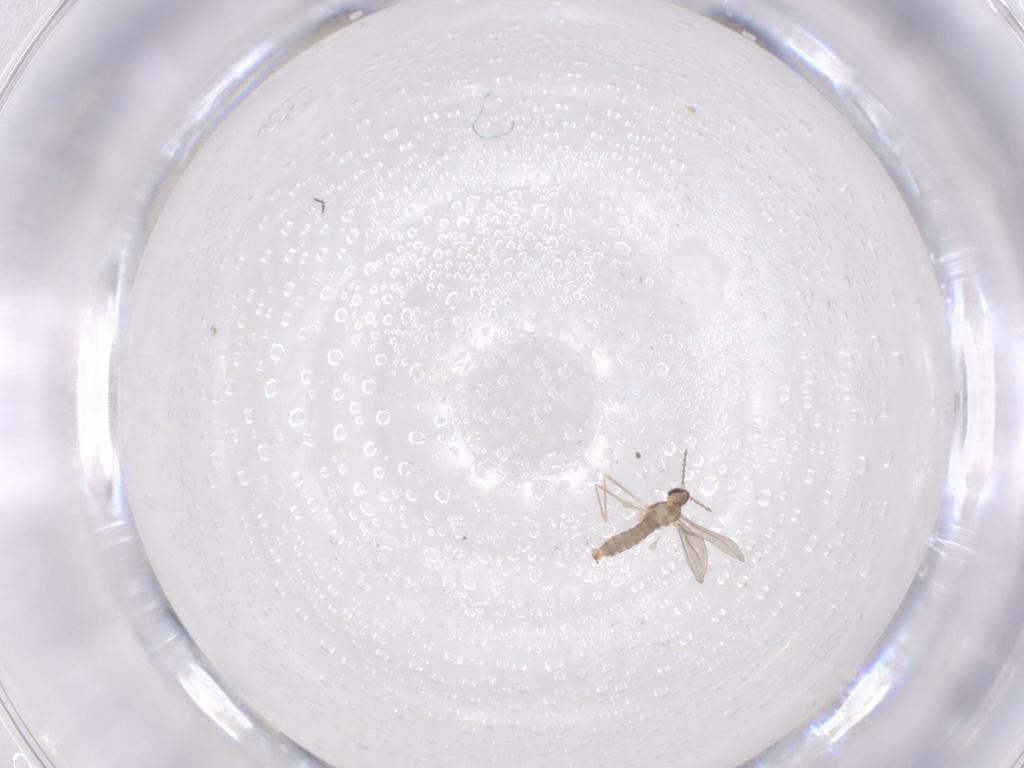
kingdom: Animalia
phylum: Arthropoda
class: Insecta
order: Diptera
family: Cecidomyiidae
